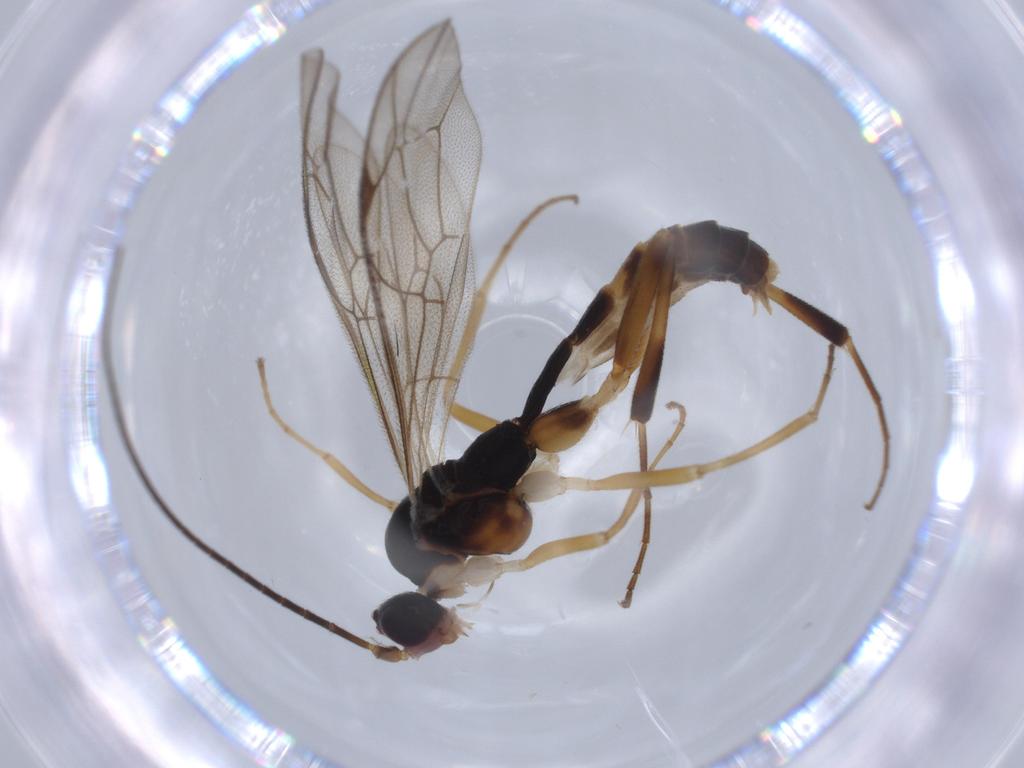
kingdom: Animalia
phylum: Arthropoda
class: Insecta
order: Hymenoptera
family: Ichneumonidae
